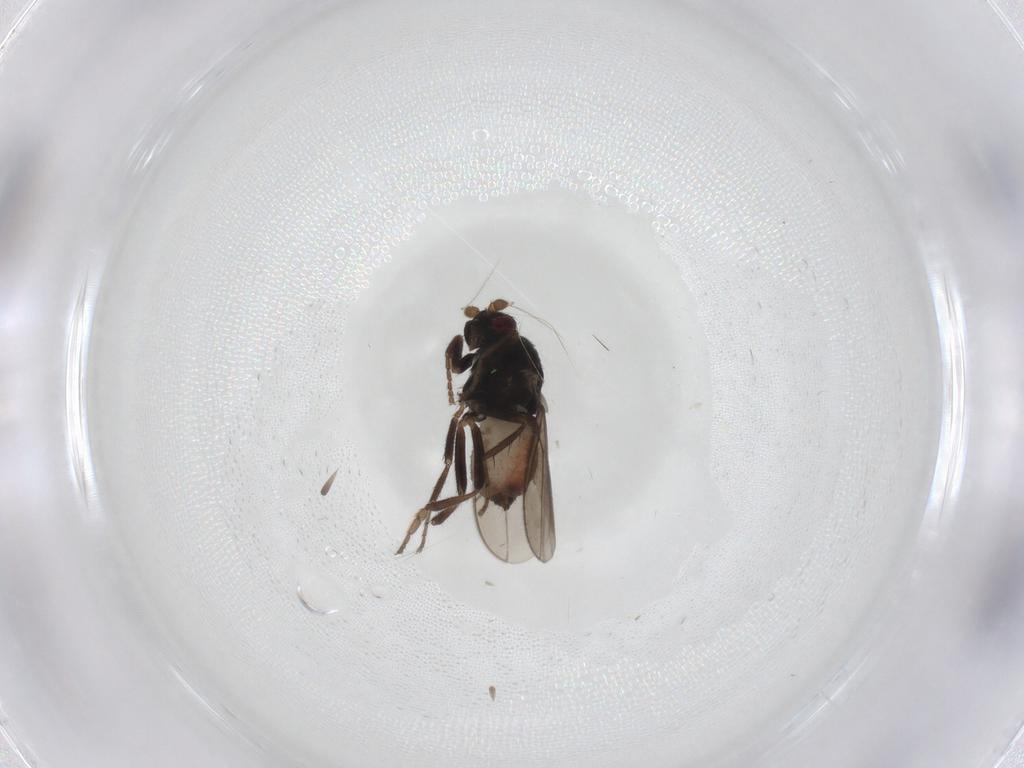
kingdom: Animalia
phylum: Arthropoda
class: Insecta
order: Diptera
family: Sphaeroceridae
